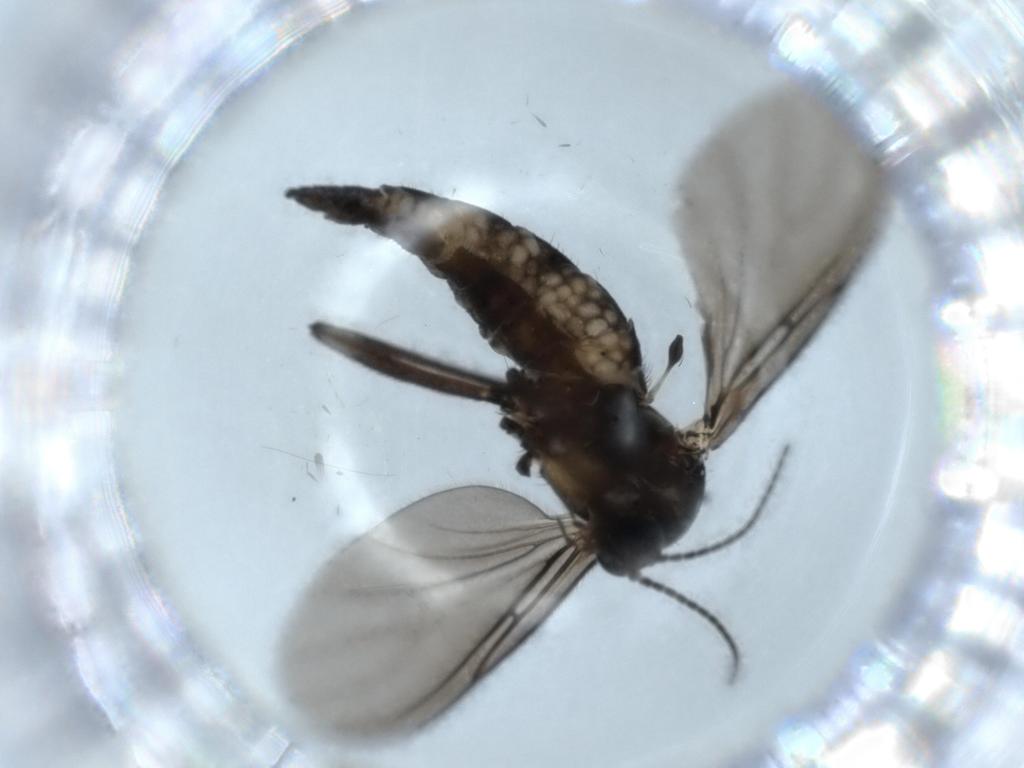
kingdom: Animalia
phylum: Arthropoda
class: Insecta
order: Diptera
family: Sciaridae
